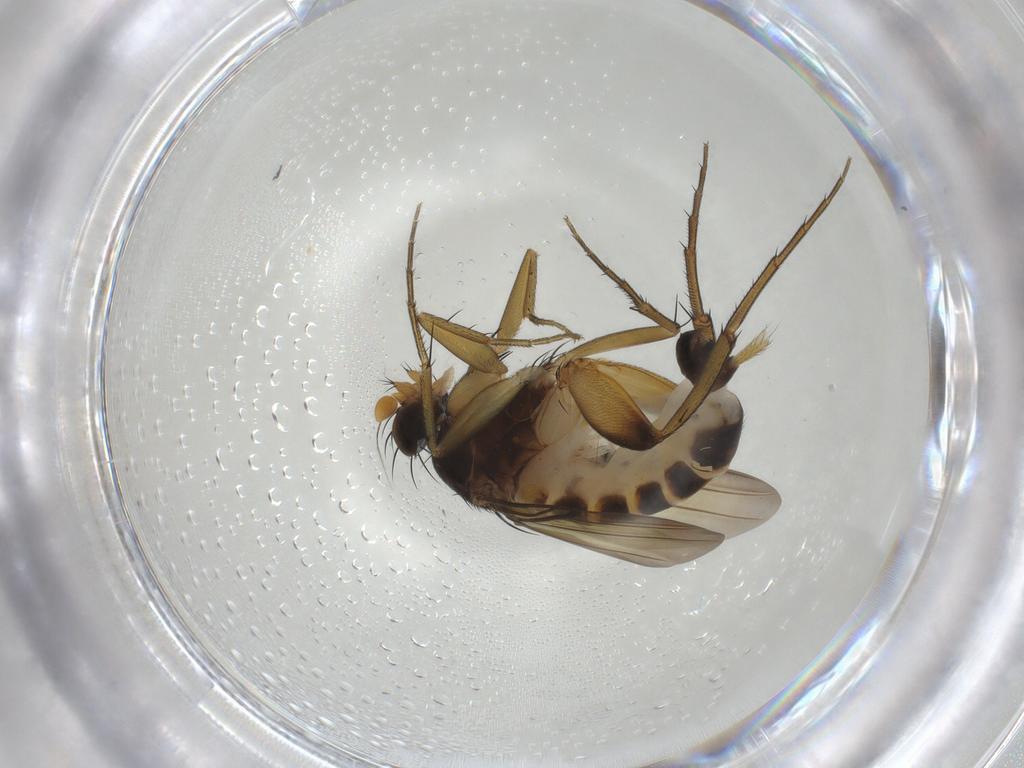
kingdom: Animalia
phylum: Arthropoda
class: Insecta
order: Diptera
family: Phoridae
